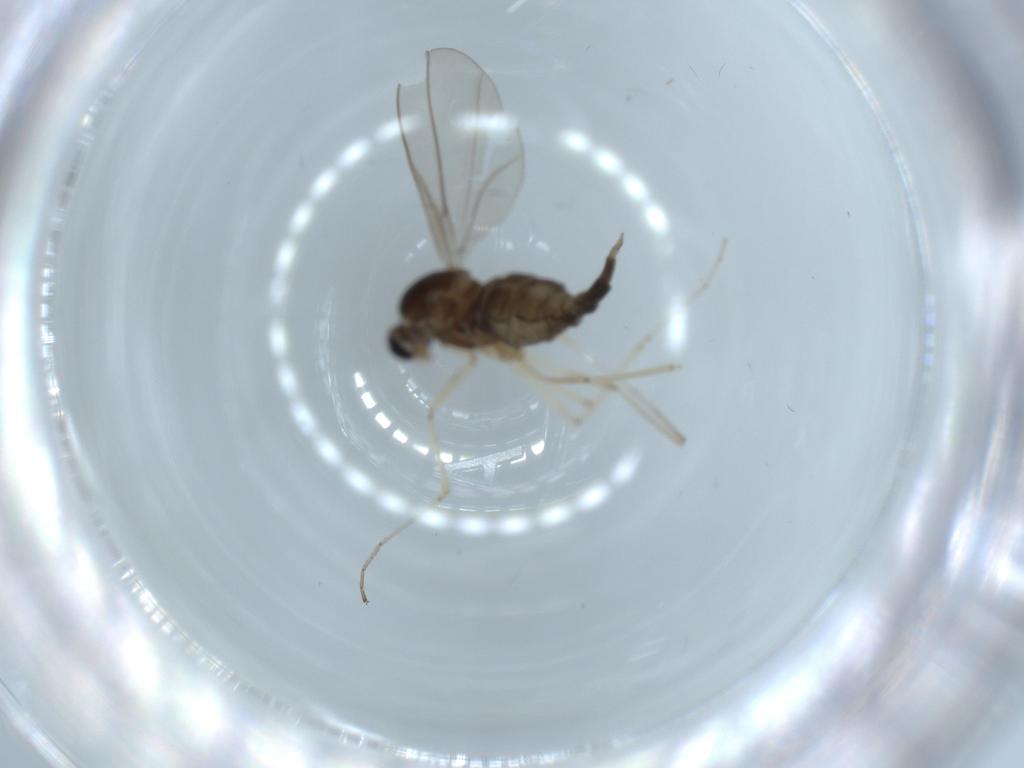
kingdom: Animalia
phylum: Arthropoda
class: Insecta
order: Diptera
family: Cecidomyiidae
